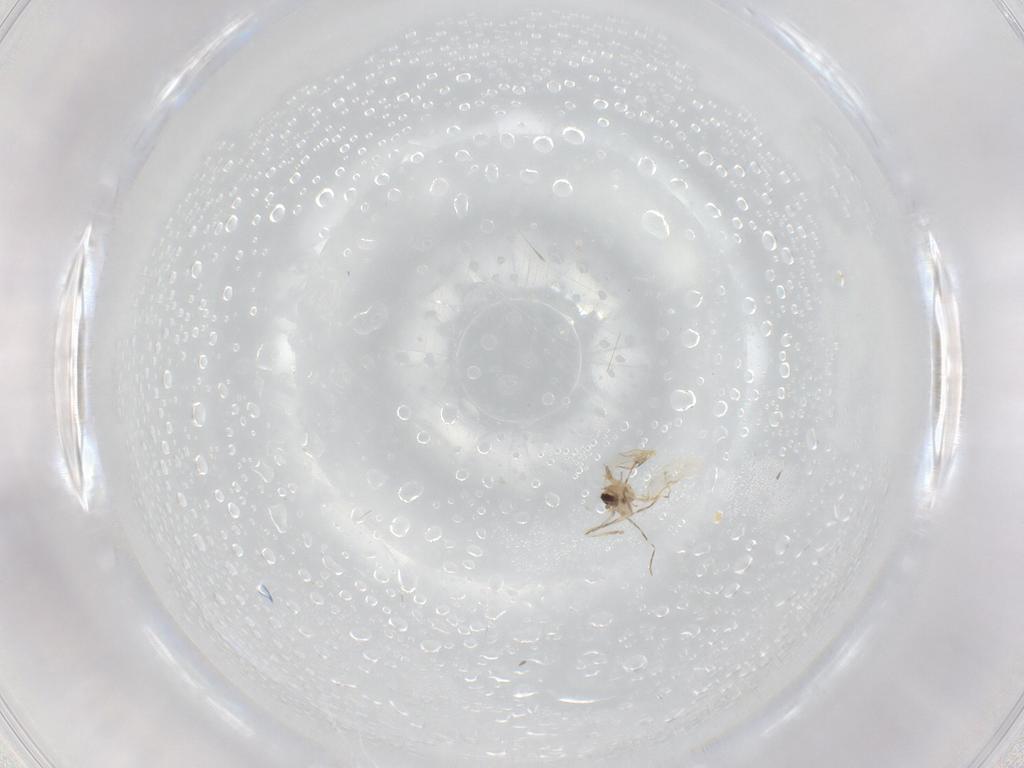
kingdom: Animalia
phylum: Arthropoda
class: Insecta
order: Diptera
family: Cecidomyiidae
